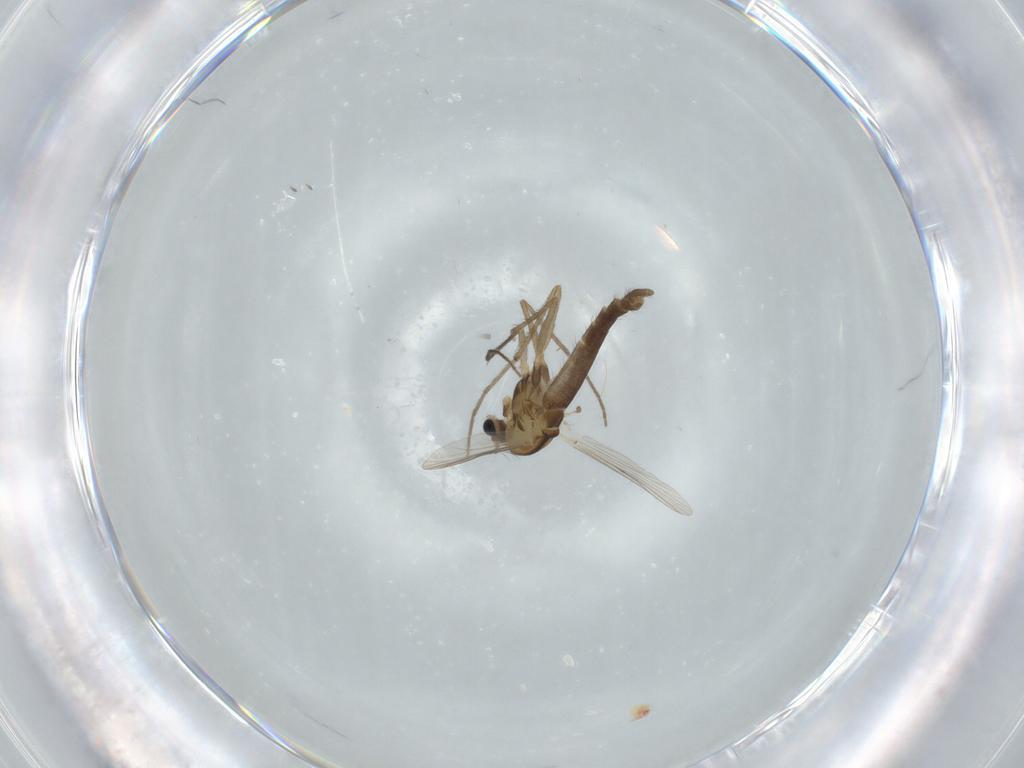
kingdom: Animalia
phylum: Arthropoda
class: Insecta
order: Diptera
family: Chironomidae
